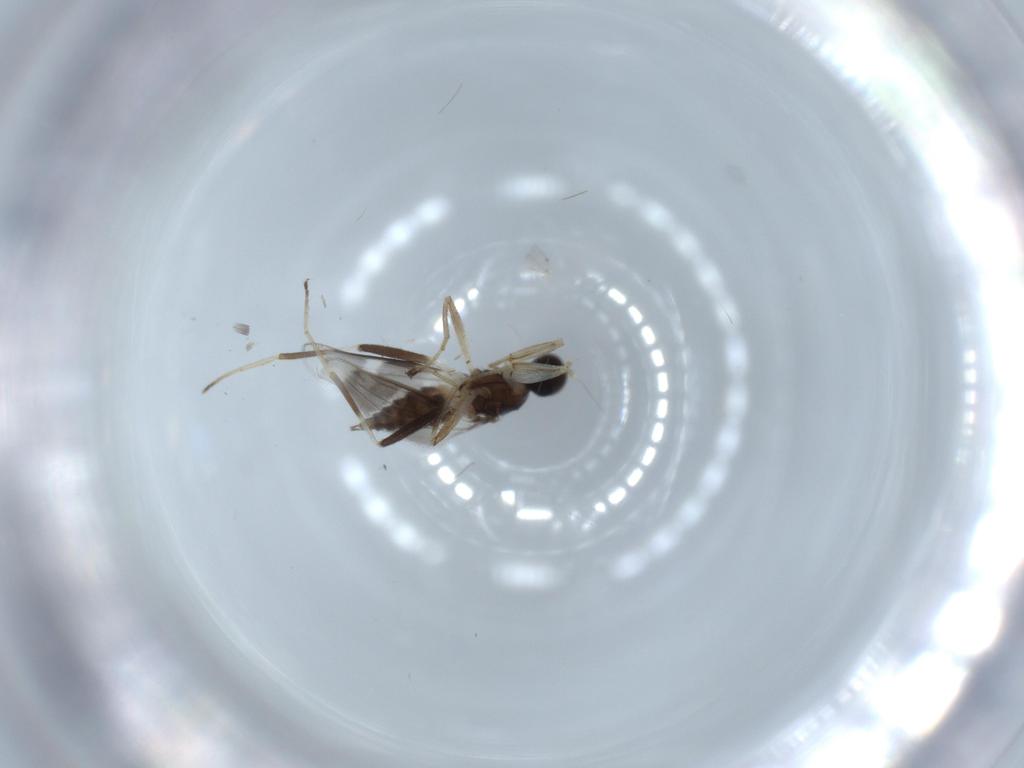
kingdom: Animalia
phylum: Arthropoda
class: Insecta
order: Diptera
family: Hybotidae
